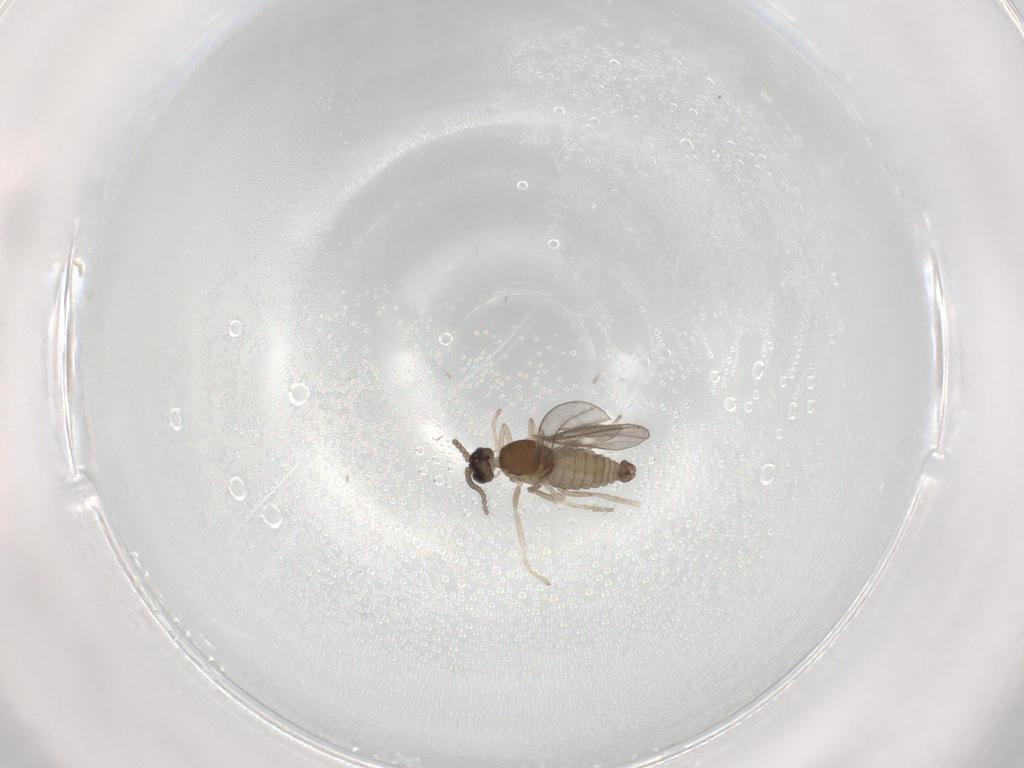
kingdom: Animalia
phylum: Arthropoda
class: Insecta
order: Diptera
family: Cecidomyiidae
